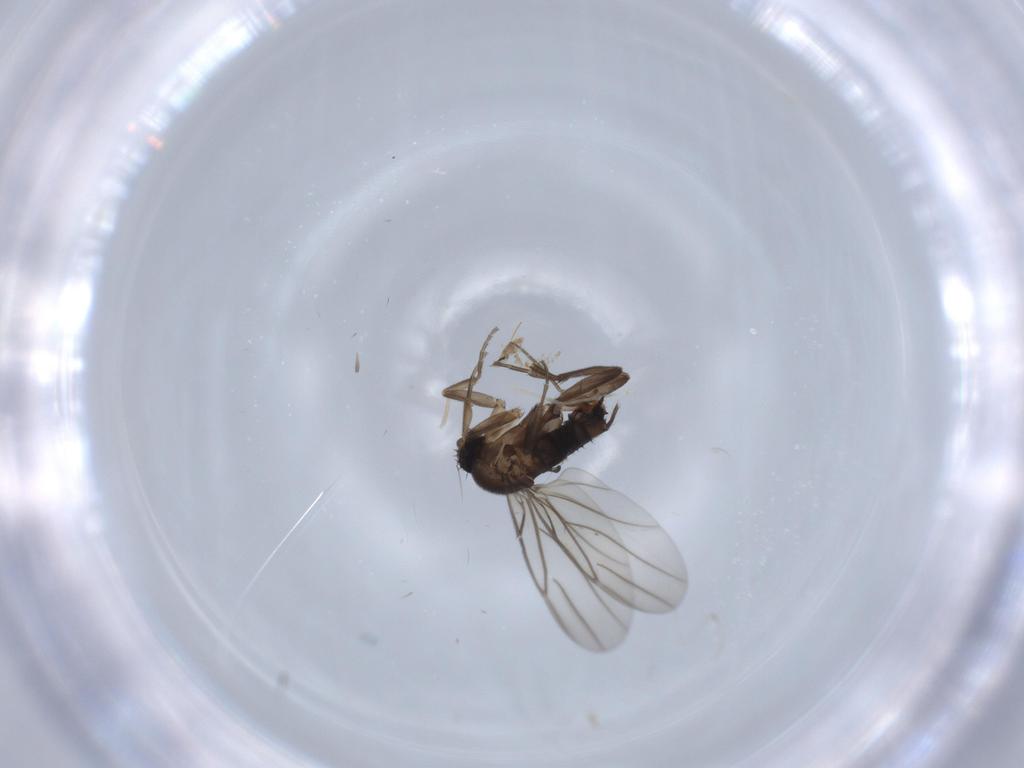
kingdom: Animalia
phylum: Arthropoda
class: Insecta
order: Diptera
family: Cecidomyiidae
